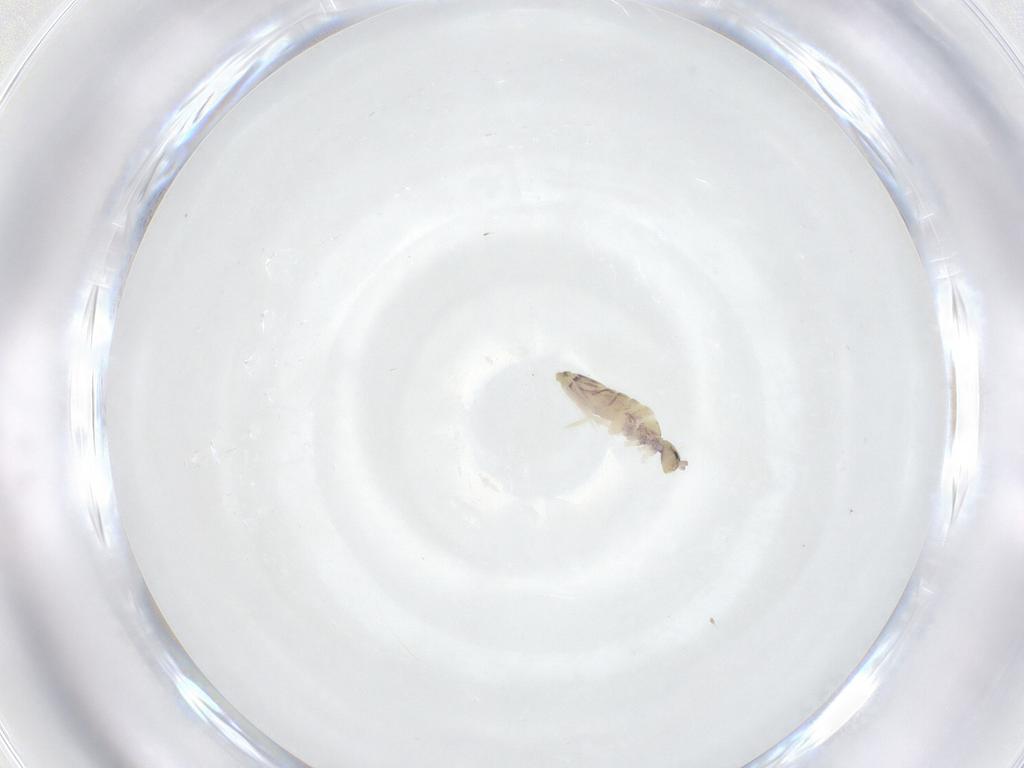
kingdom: Animalia
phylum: Arthropoda
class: Collembola
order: Entomobryomorpha
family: Entomobryidae
